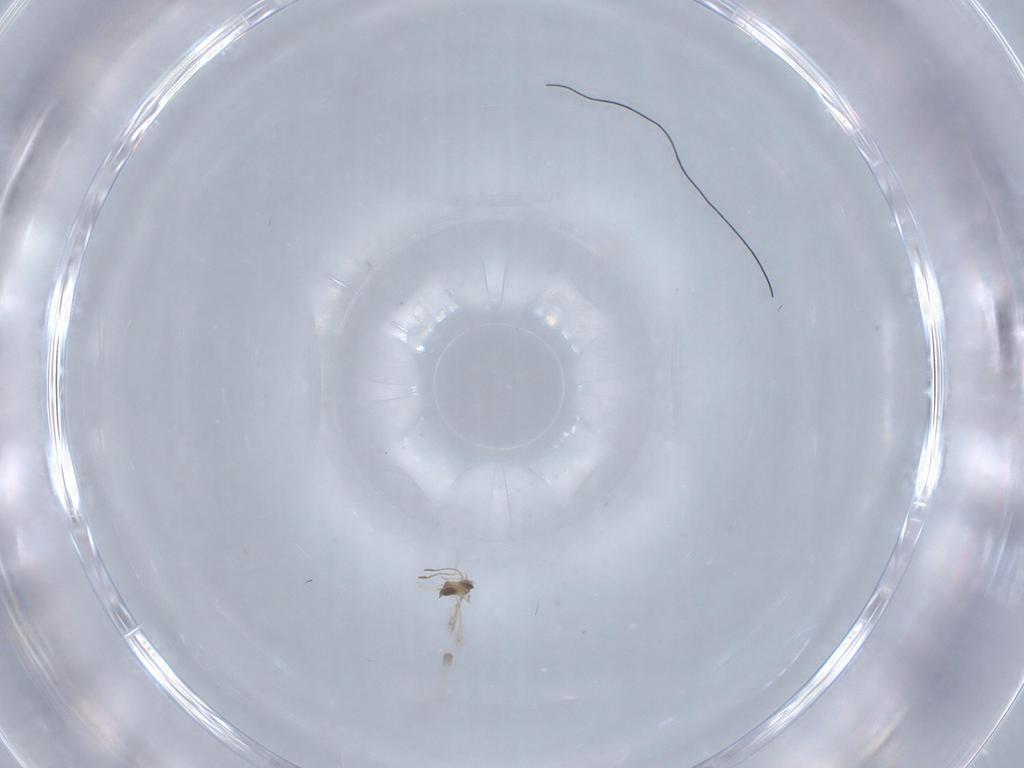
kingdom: Animalia
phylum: Arthropoda
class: Insecta
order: Hymenoptera
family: Mymaridae
